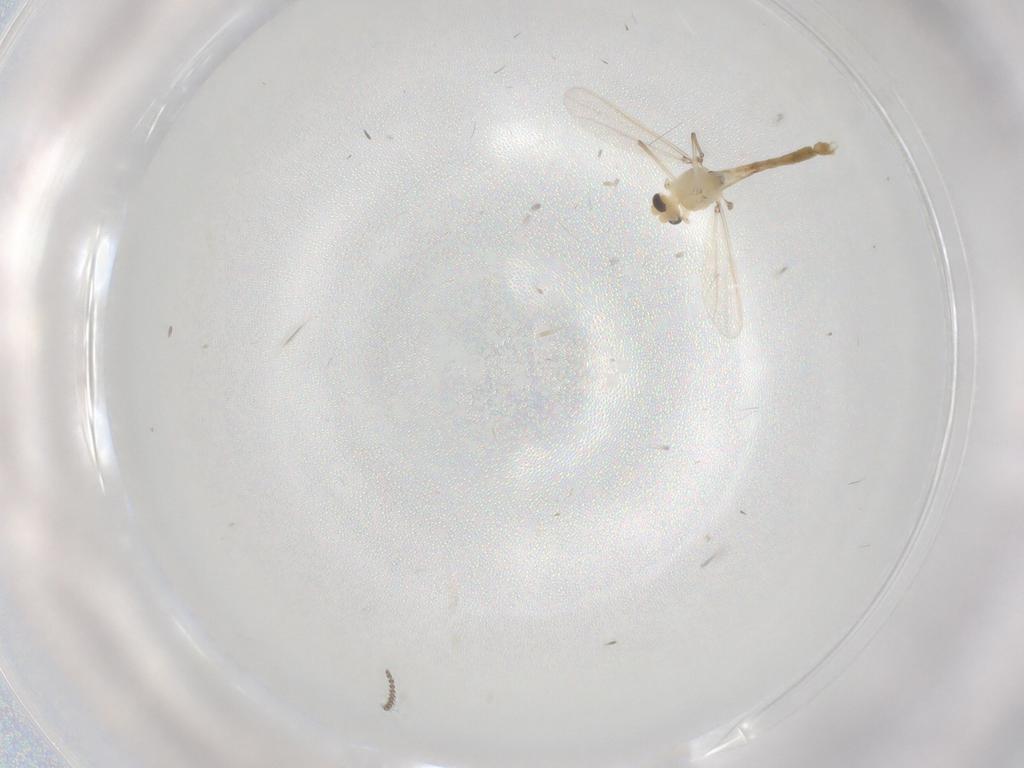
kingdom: Animalia
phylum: Arthropoda
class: Insecta
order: Diptera
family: Chironomidae
